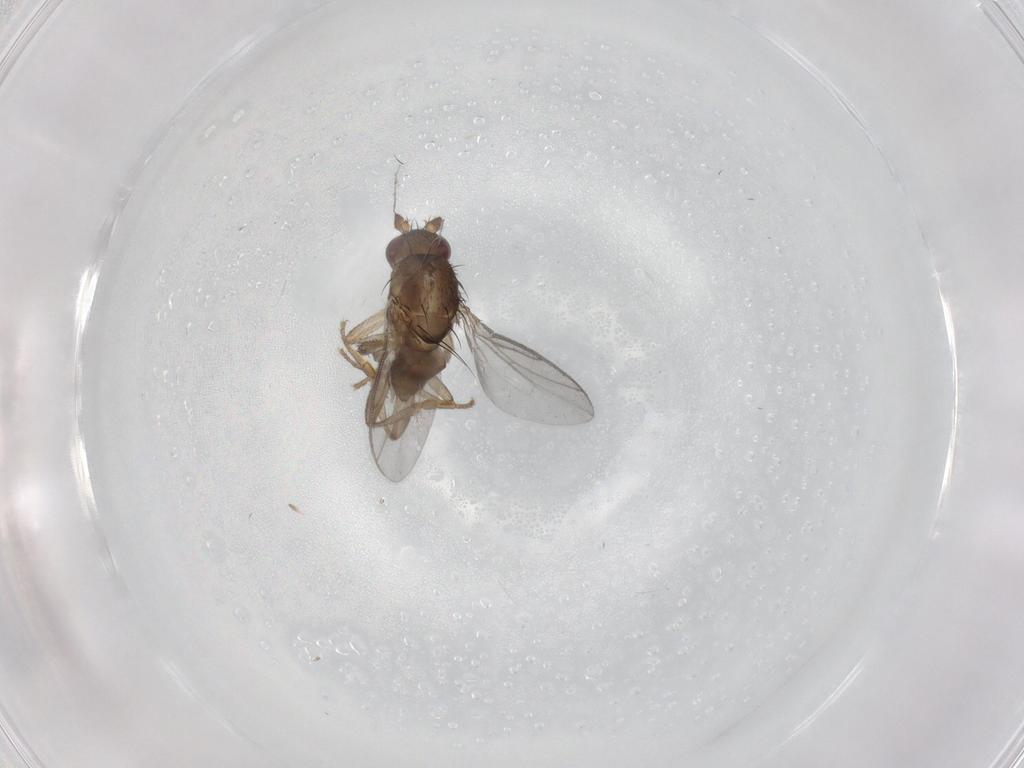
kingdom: Animalia
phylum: Arthropoda
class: Insecta
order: Diptera
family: Sphaeroceridae
